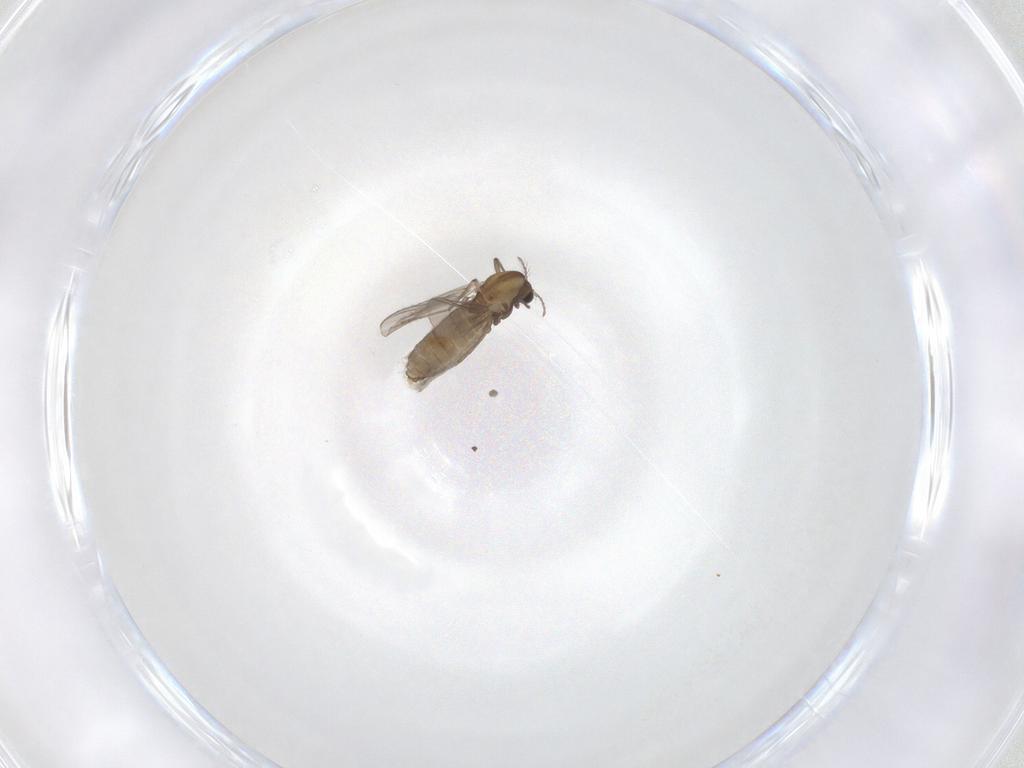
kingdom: Animalia
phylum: Arthropoda
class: Insecta
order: Diptera
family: Chironomidae
